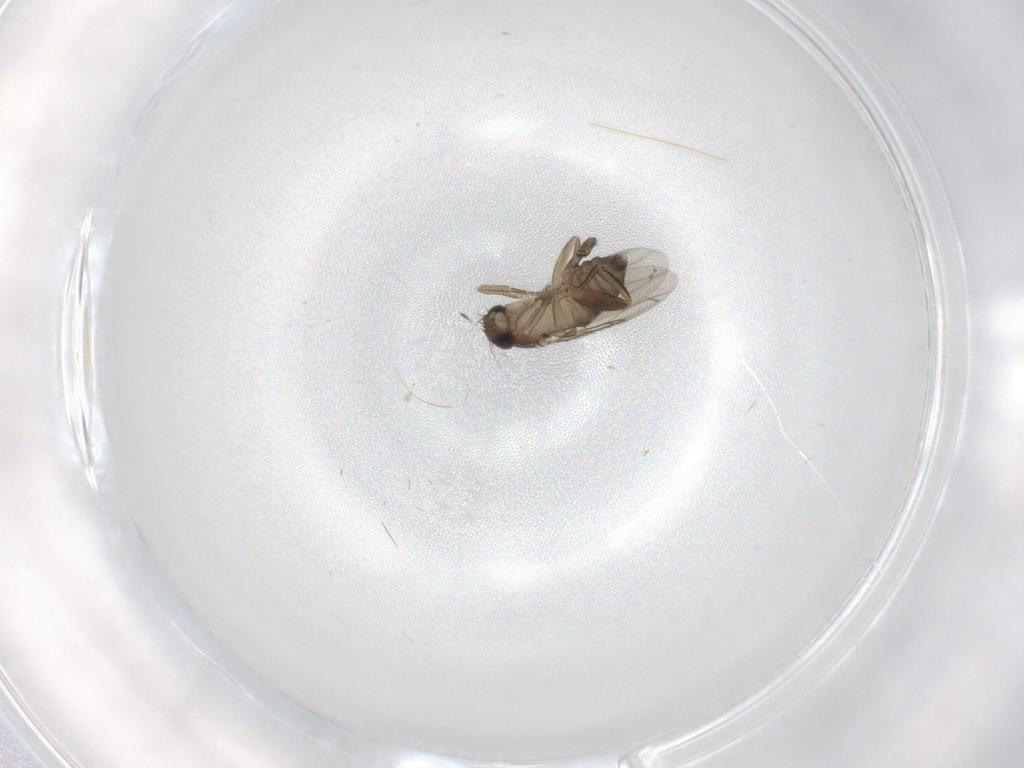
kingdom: Animalia
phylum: Arthropoda
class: Insecta
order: Diptera
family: Phoridae
